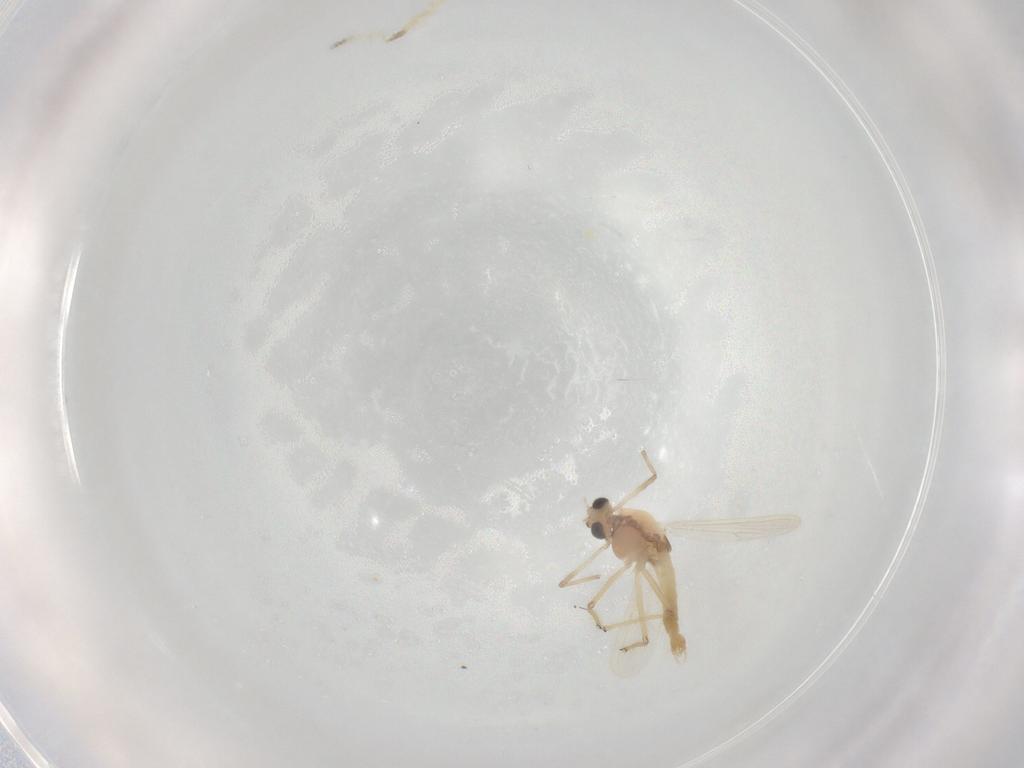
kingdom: Animalia
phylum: Arthropoda
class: Insecta
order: Diptera
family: Chironomidae
